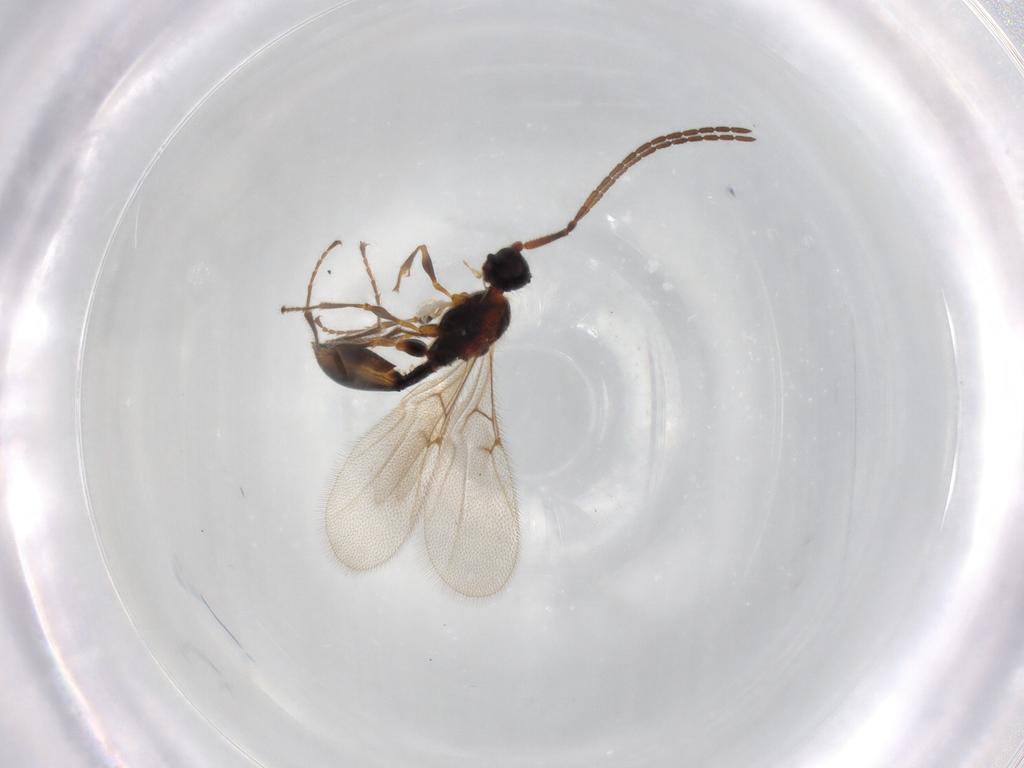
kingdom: Animalia
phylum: Arthropoda
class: Insecta
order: Hymenoptera
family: Diapriidae
